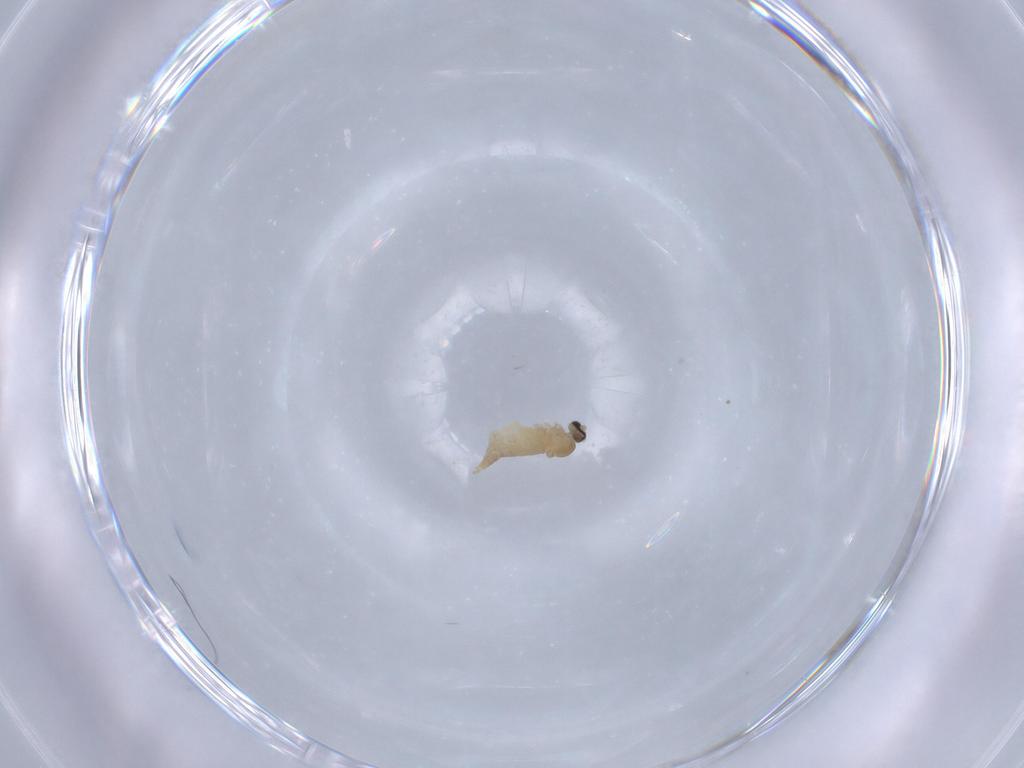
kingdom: Animalia
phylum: Arthropoda
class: Insecta
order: Diptera
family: Cecidomyiidae
